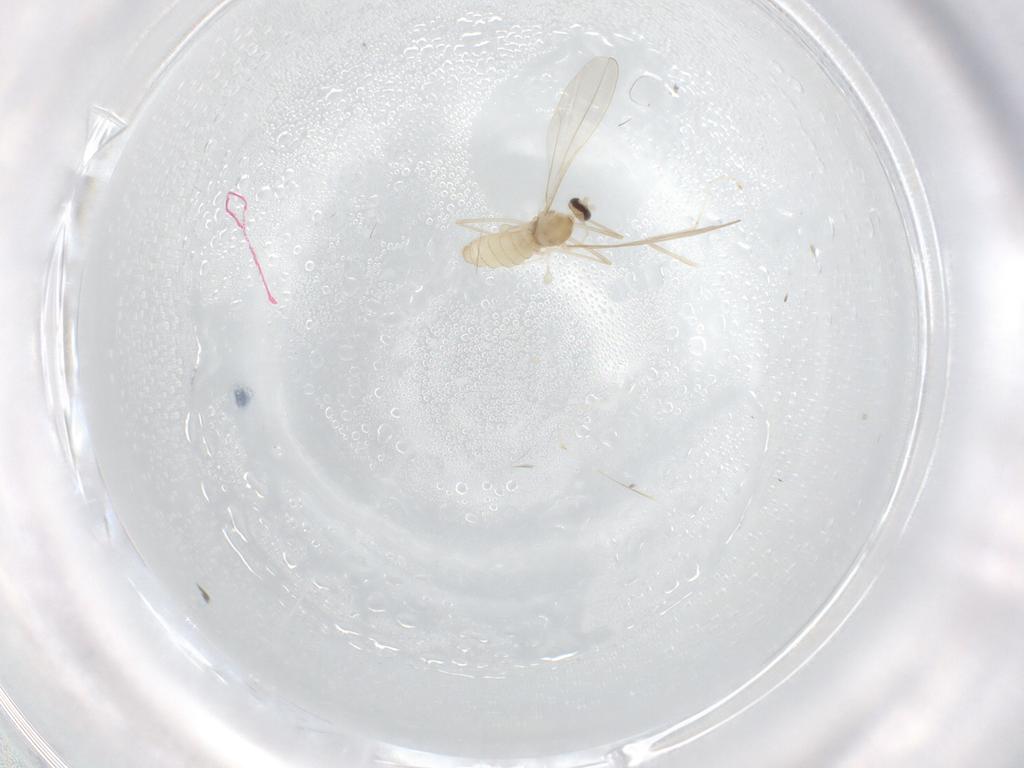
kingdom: Animalia
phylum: Arthropoda
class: Insecta
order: Diptera
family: Cecidomyiidae
